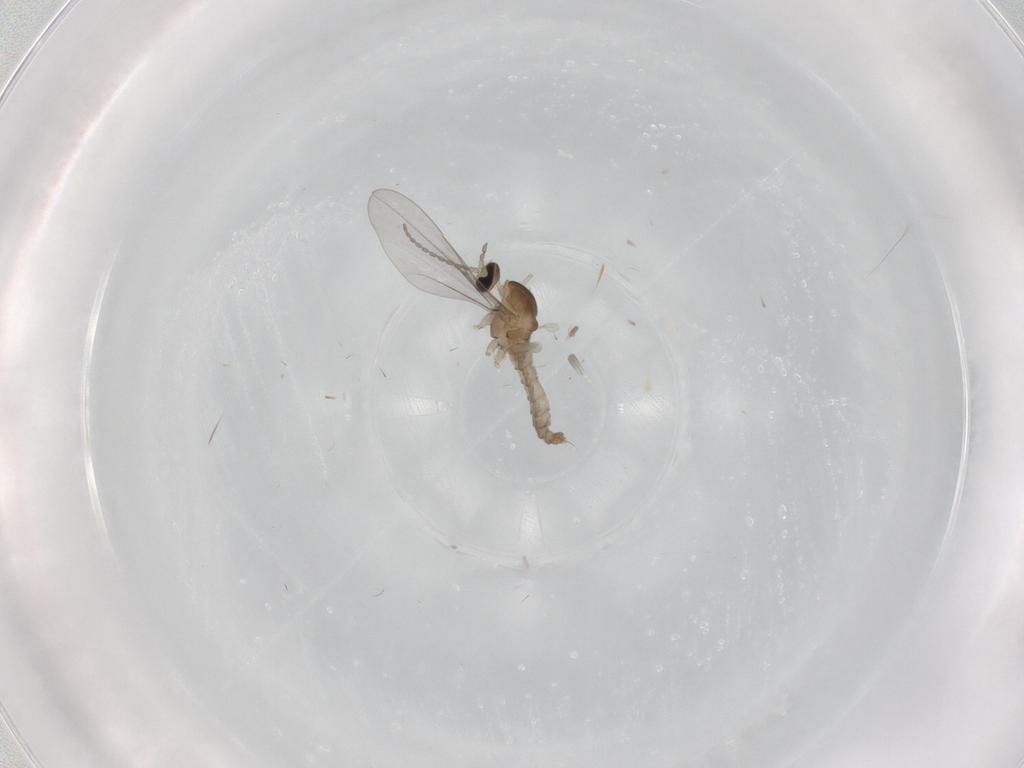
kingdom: Animalia
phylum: Arthropoda
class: Insecta
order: Diptera
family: Cecidomyiidae
